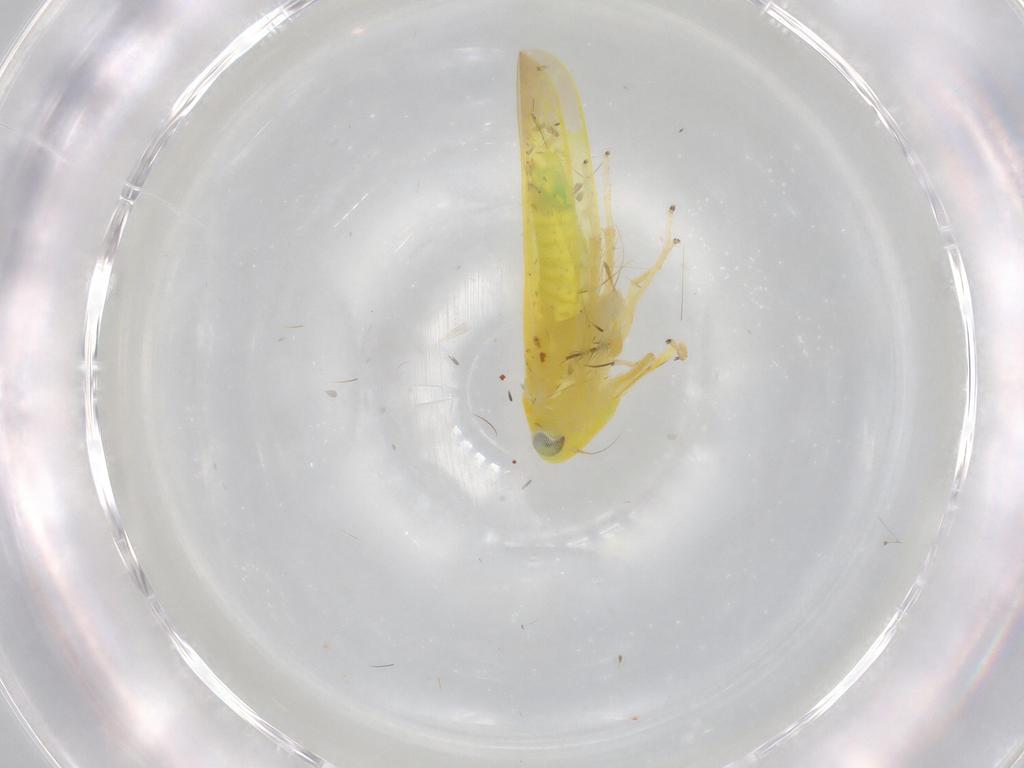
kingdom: Animalia
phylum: Arthropoda
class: Insecta
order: Hemiptera
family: Cicadellidae
